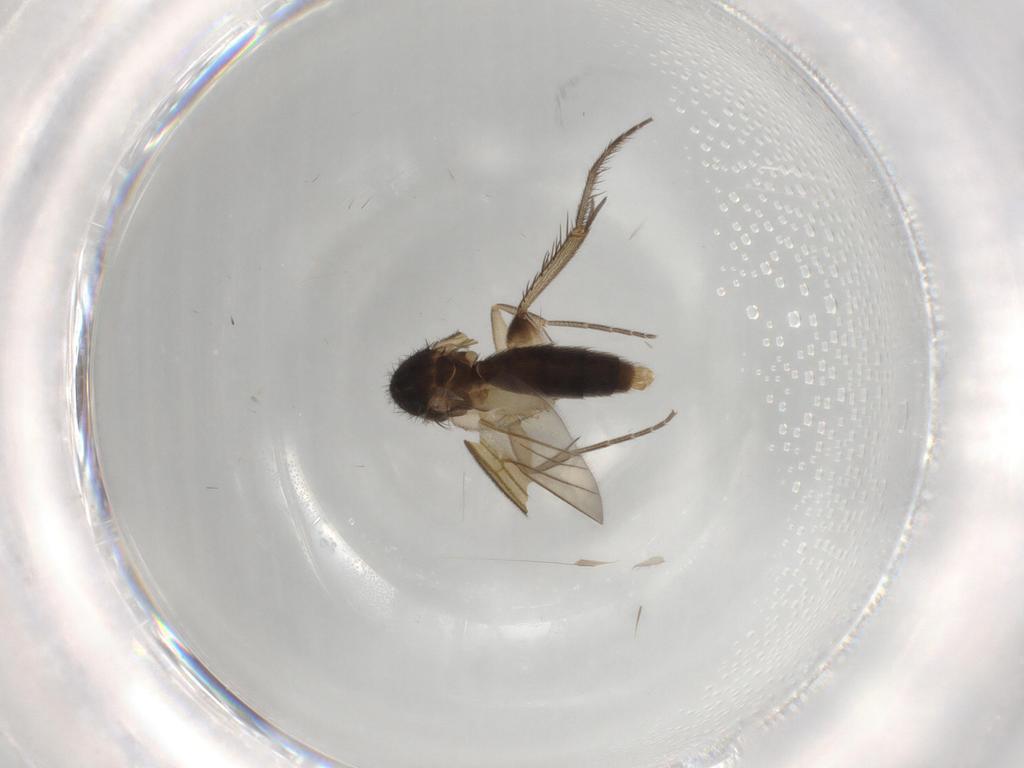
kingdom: Animalia
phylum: Arthropoda
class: Insecta
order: Diptera
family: Mycetophilidae
